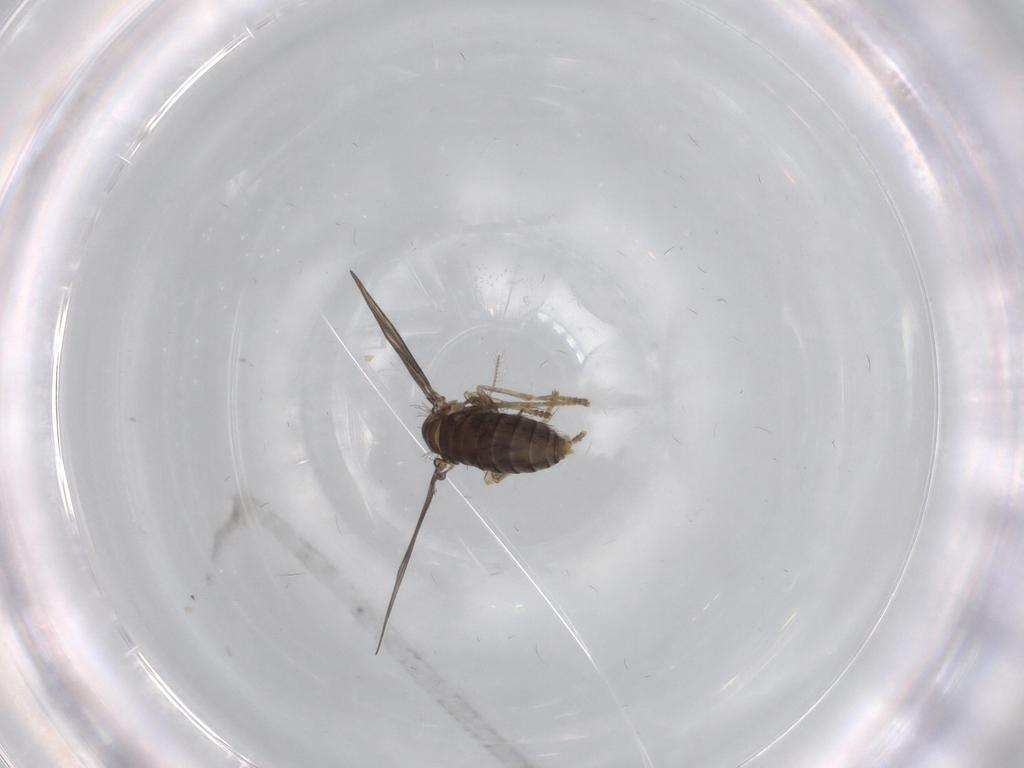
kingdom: Animalia
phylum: Arthropoda
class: Insecta
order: Diptera
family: Psychodidae
